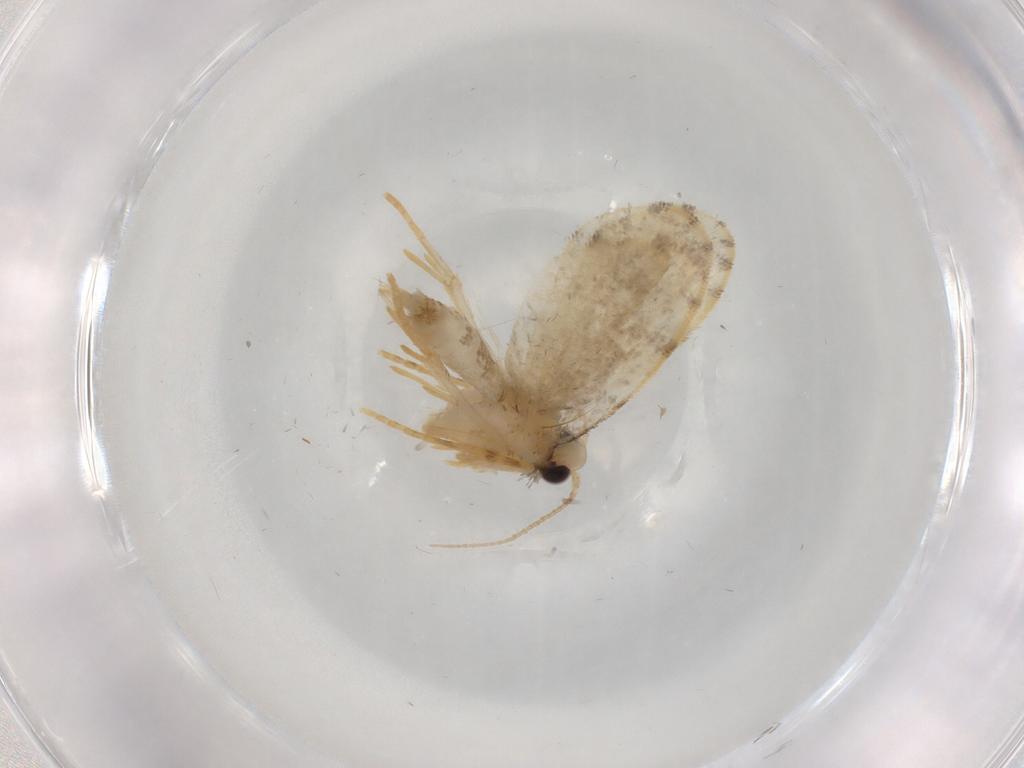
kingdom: Animalia
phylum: Arthropoda
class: Insecta
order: Lepidoptera
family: Psychidae
